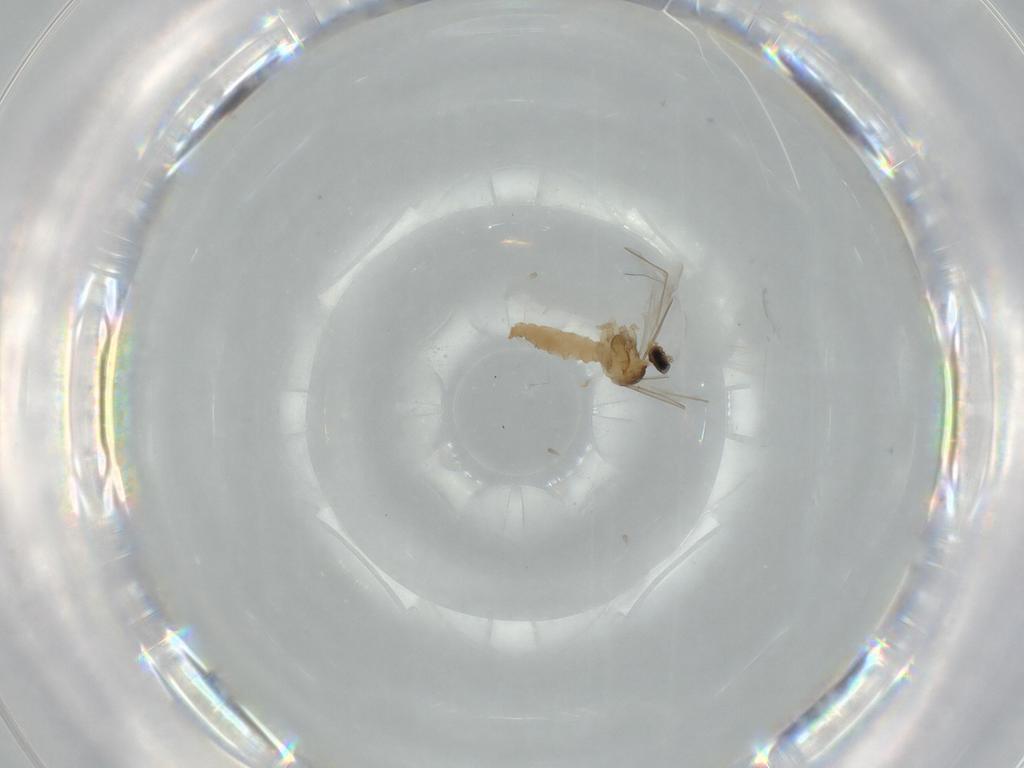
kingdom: Animalia
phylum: Arthropoda
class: Insecta
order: Diptera
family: Cecidomyiidae
